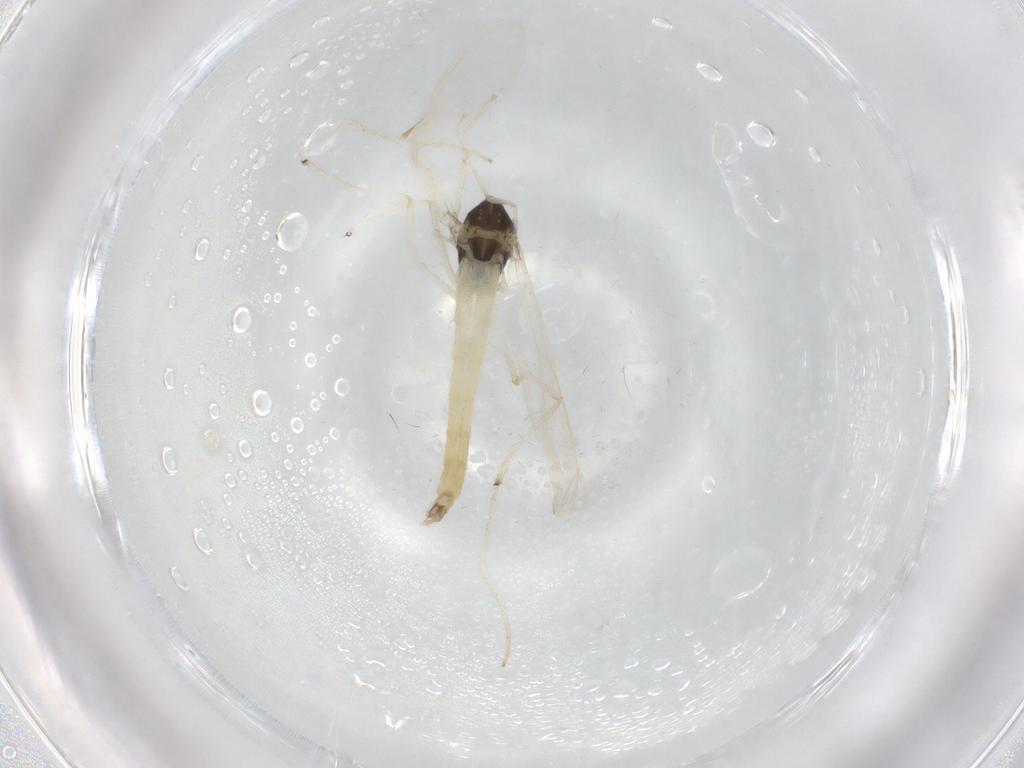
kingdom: Animalia
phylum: Arthropoda
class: Insecta
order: Diptera
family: Chironomidae
